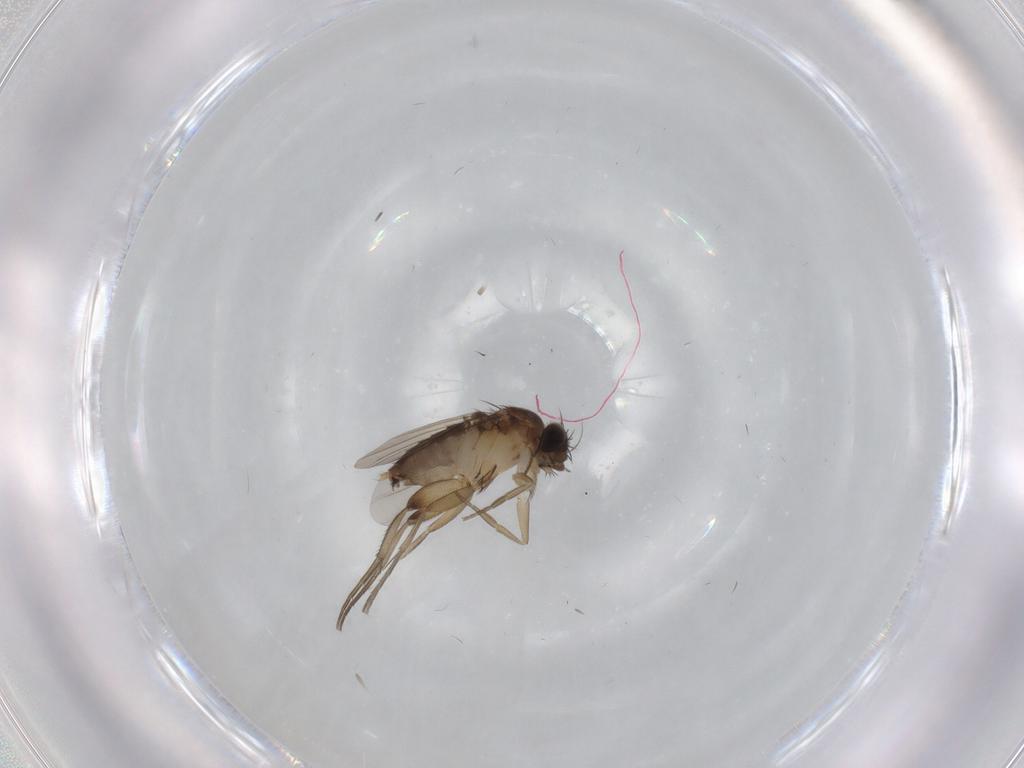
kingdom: Animalia
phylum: Arthropoda
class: Insecta
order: Diptera
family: Phoridae
